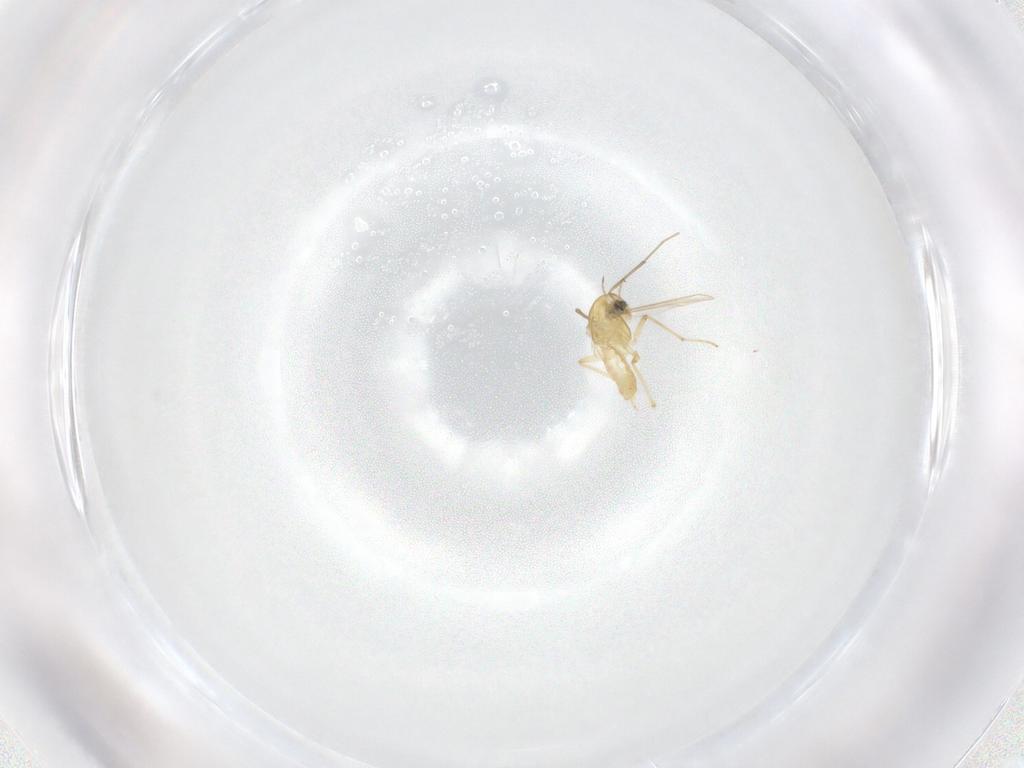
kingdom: Animalia
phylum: Arthropoda
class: Insecta
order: Diptera
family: Chironomidae
